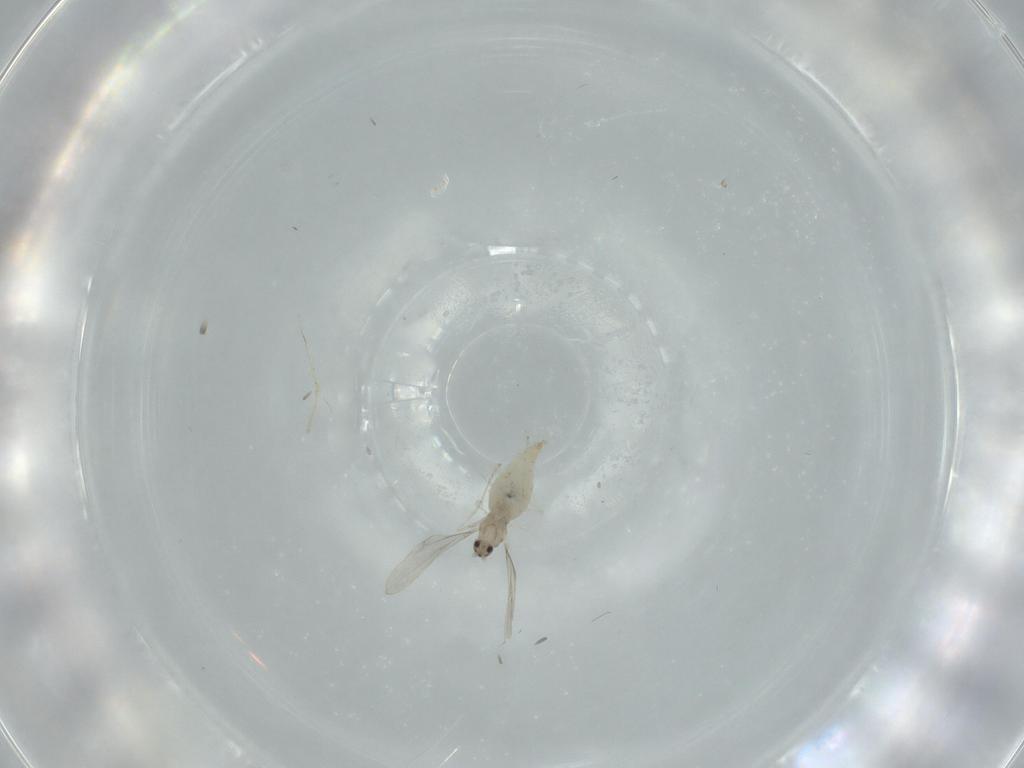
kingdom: Animalia
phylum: Arthropoda
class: Insecta
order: Diptera
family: Cecidomyiidae
